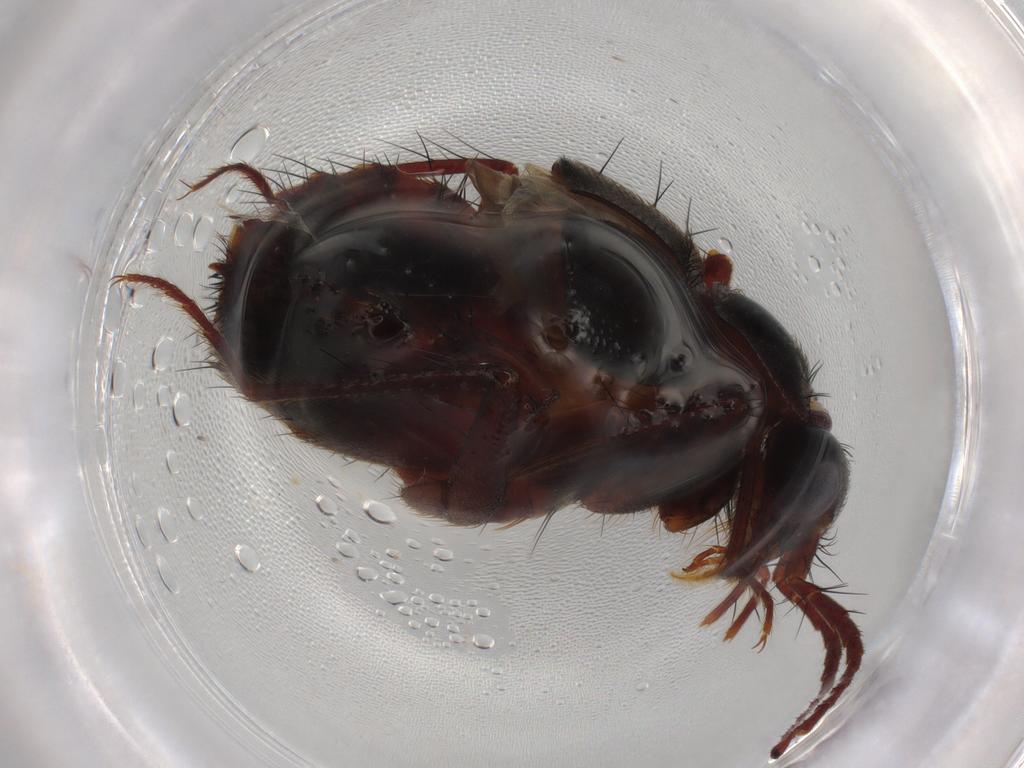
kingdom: Animalia
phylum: Arthropoda
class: Insecta
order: Coleoptera
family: Staphylinidae
